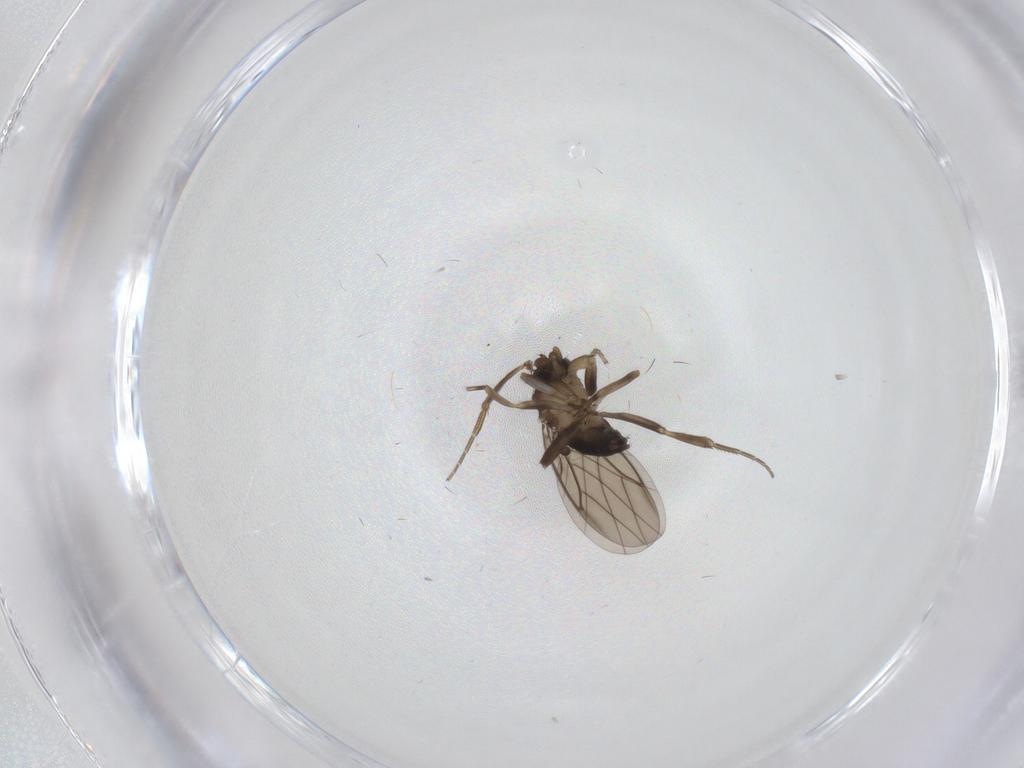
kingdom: Animalia
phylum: Arthropoda
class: Insecta
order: Diptera
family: Phoridae
